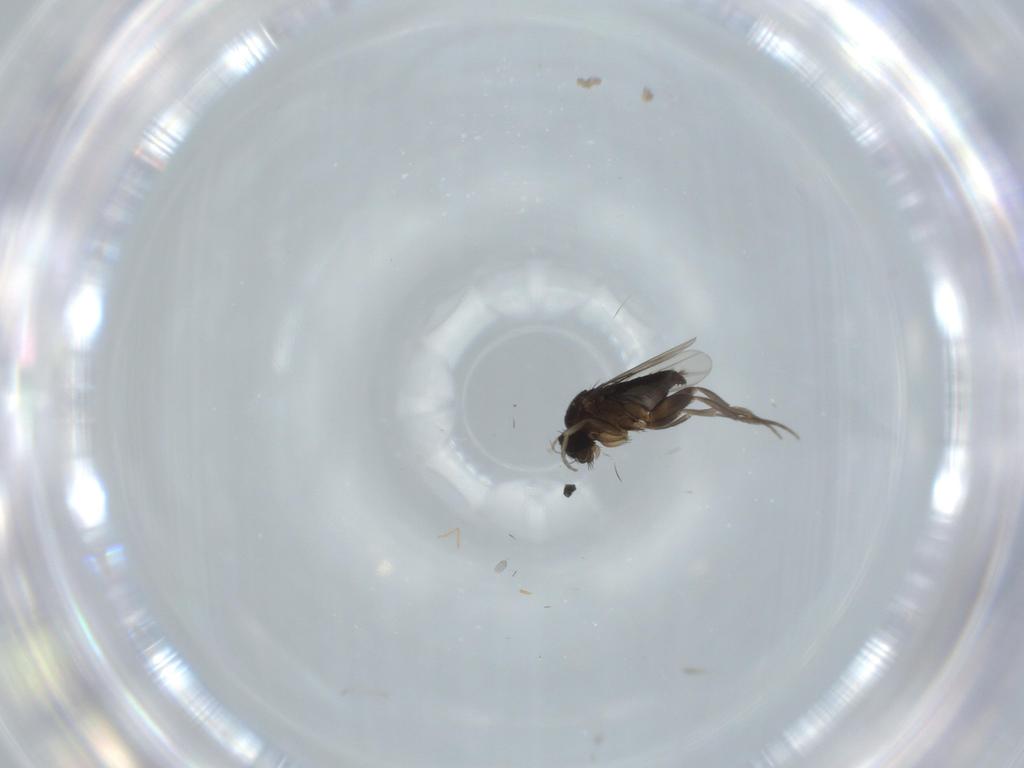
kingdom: Animalia
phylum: Arthropoda
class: Insecta
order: Diptera
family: Phoridae
